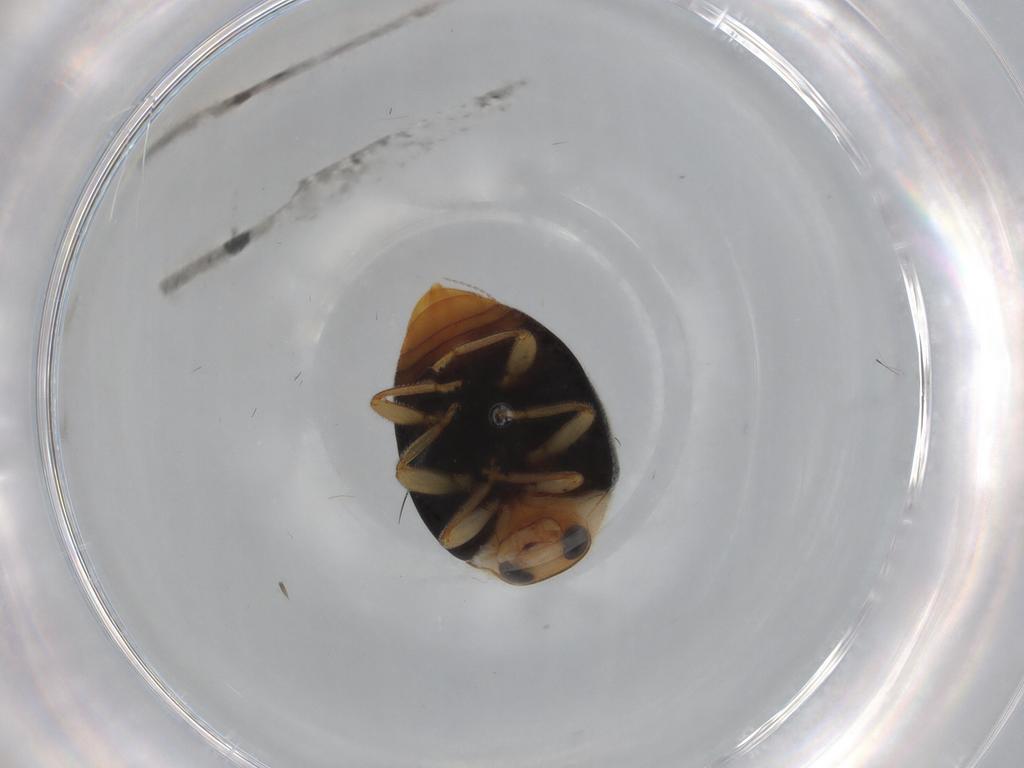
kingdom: Animalia
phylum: Arthropoda
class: Insecta
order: Coleoptera
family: Coccinellidae
